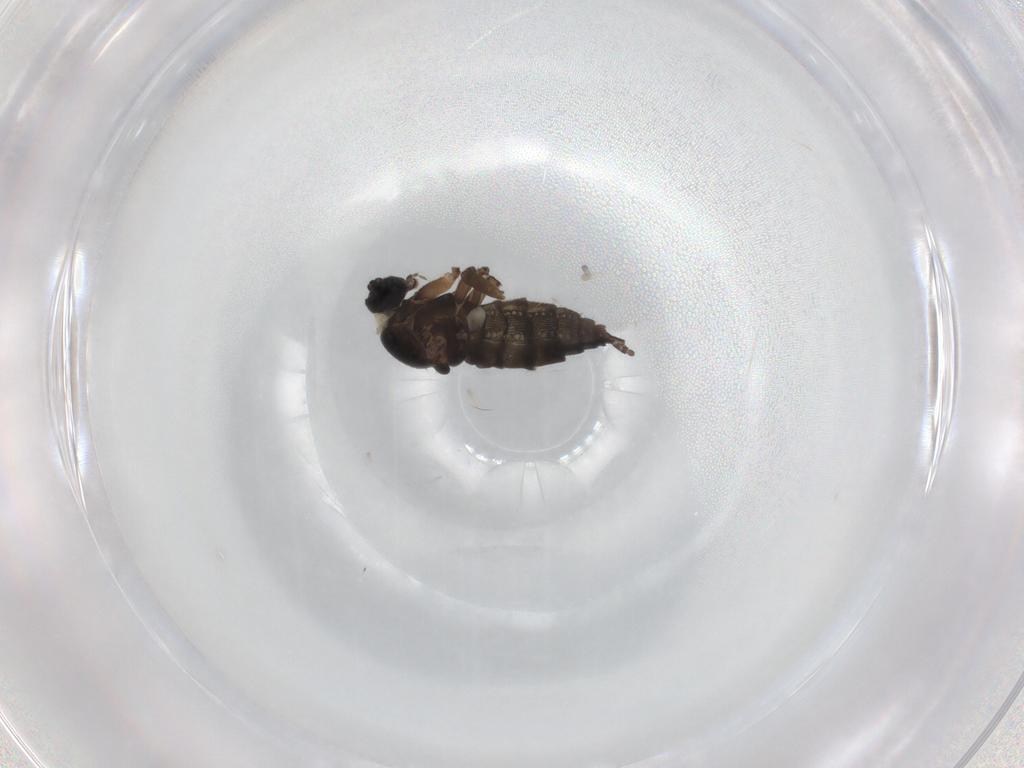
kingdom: Animalia
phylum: Arthropoda
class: Insecta
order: Diptera
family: Sciaridae
